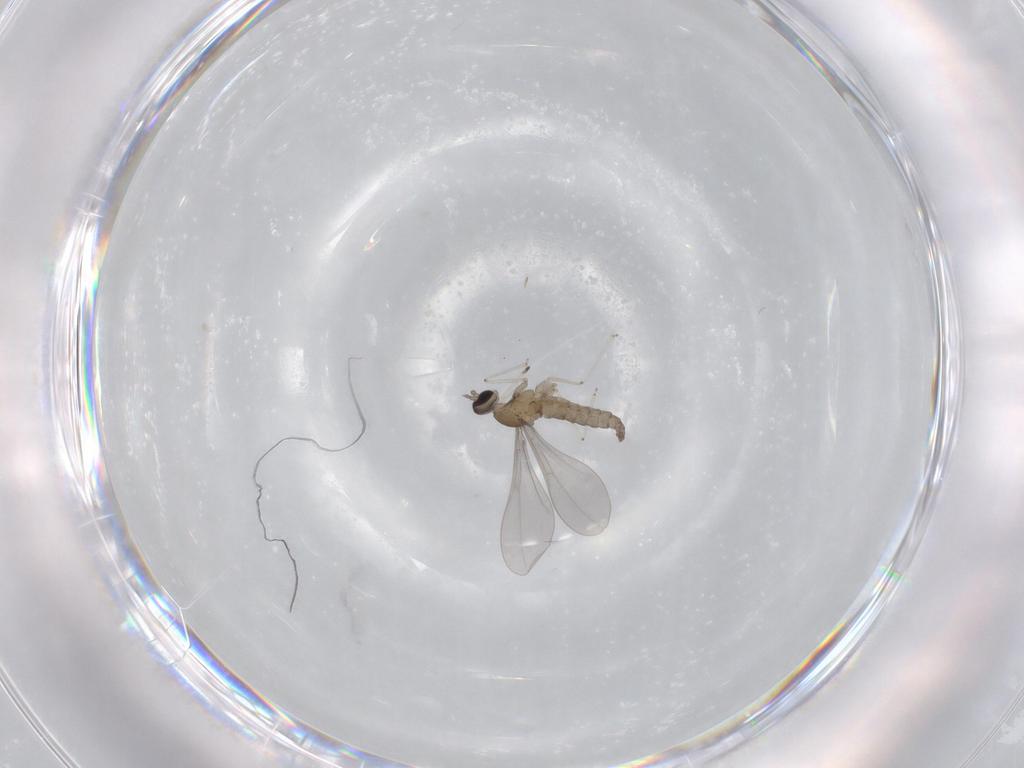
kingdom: Animalia
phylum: Arthropoda
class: Insecta
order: Diptera
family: Cecidomyiidae
